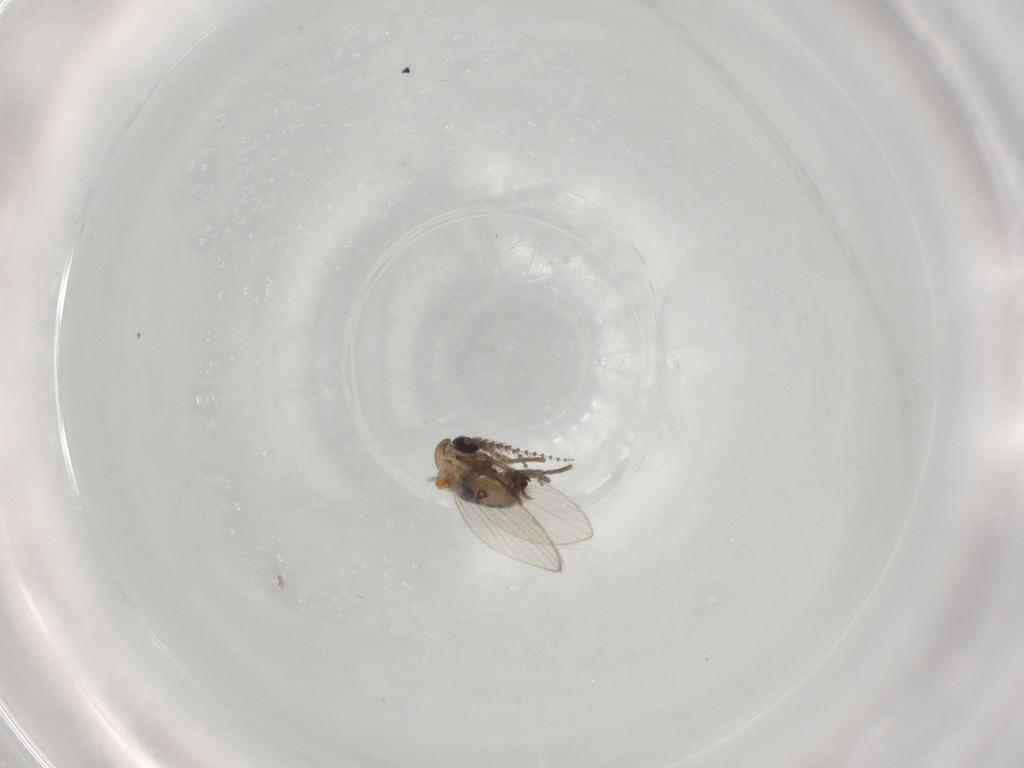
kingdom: Animalia
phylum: Arthropoda
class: Insecta
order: Diptera
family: Psychodidae
